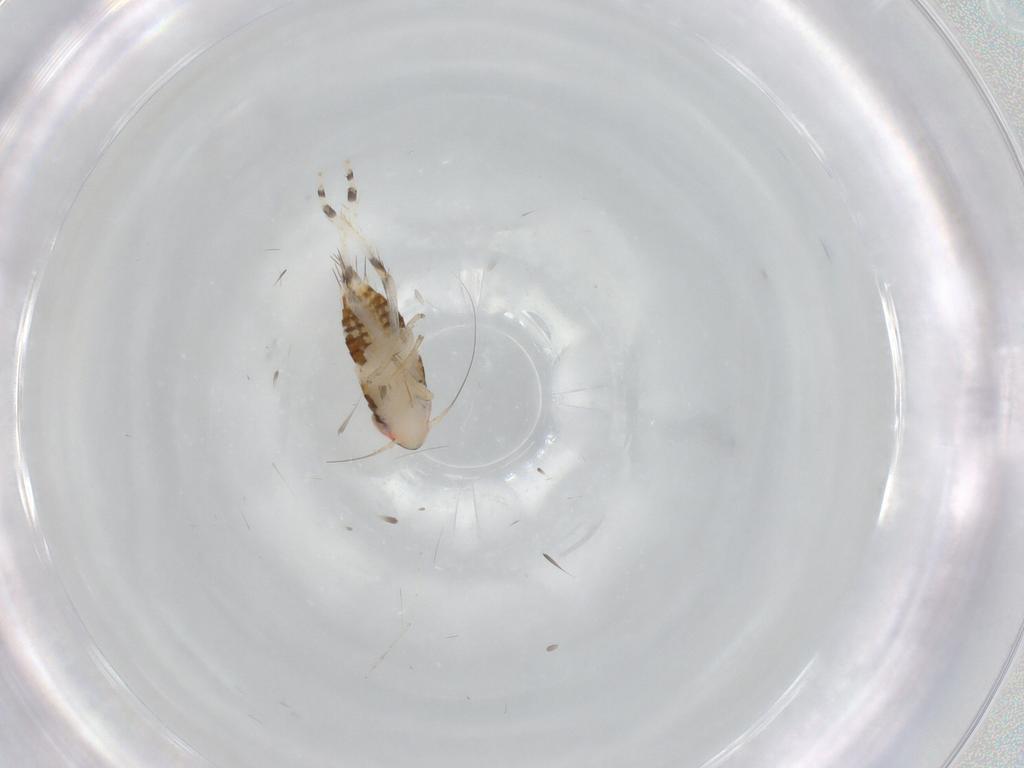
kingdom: Animalia
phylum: Arthropoda
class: Insecta
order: Hemiptera
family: Cicadellidae
